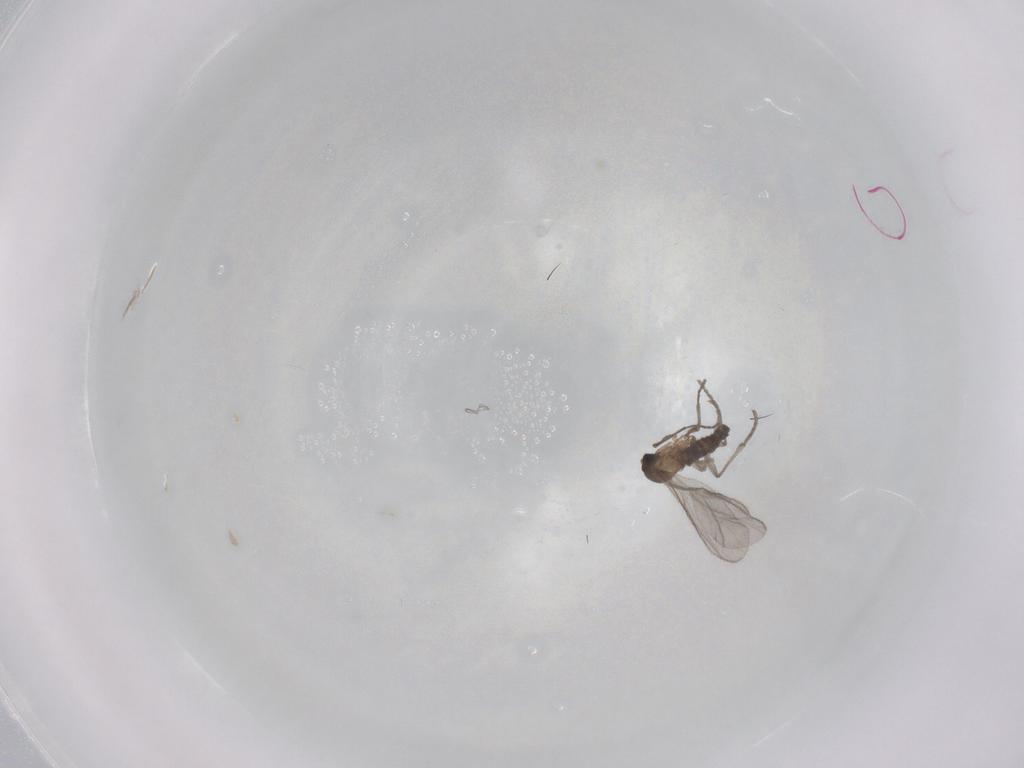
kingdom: Animalia
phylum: Arthropoda
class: Insecta
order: Diptera
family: Sciaridae
